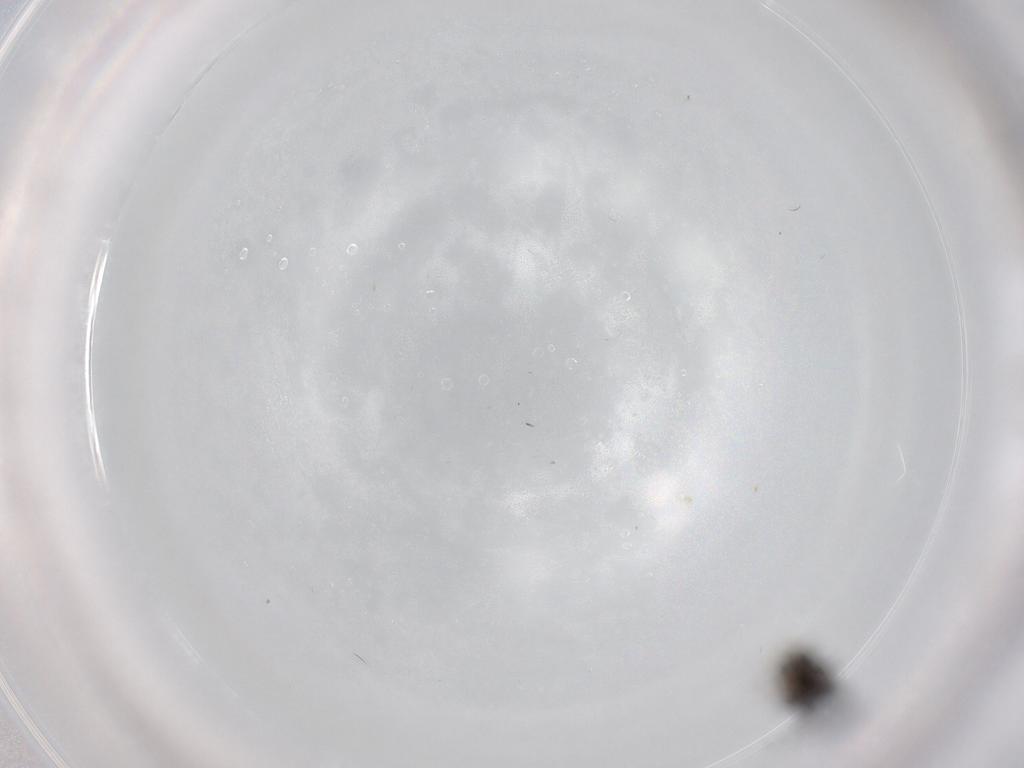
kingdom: Animalia
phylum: Arthropoda
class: Insecta
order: Diptera
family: Phoridae
